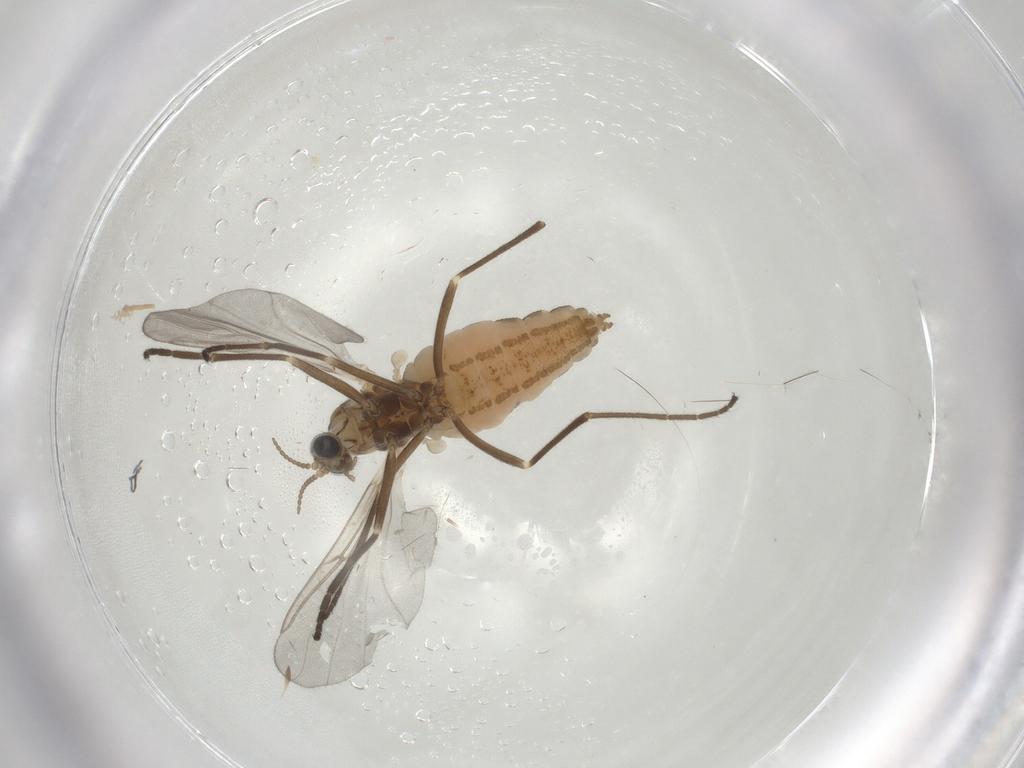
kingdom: Animalia
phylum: Arthropoda
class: Insecta
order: Diptera
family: Cecidomyiidae
